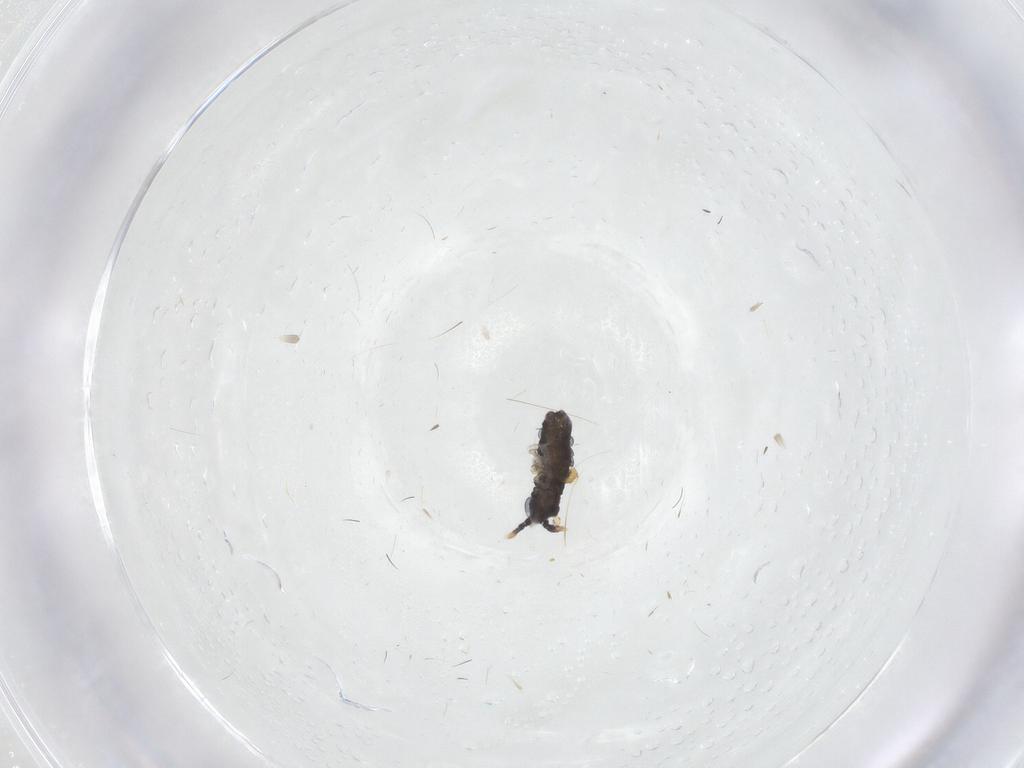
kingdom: Animalia
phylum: Arthropoda
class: Collembola
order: Poduromorpha
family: Neanuridae
